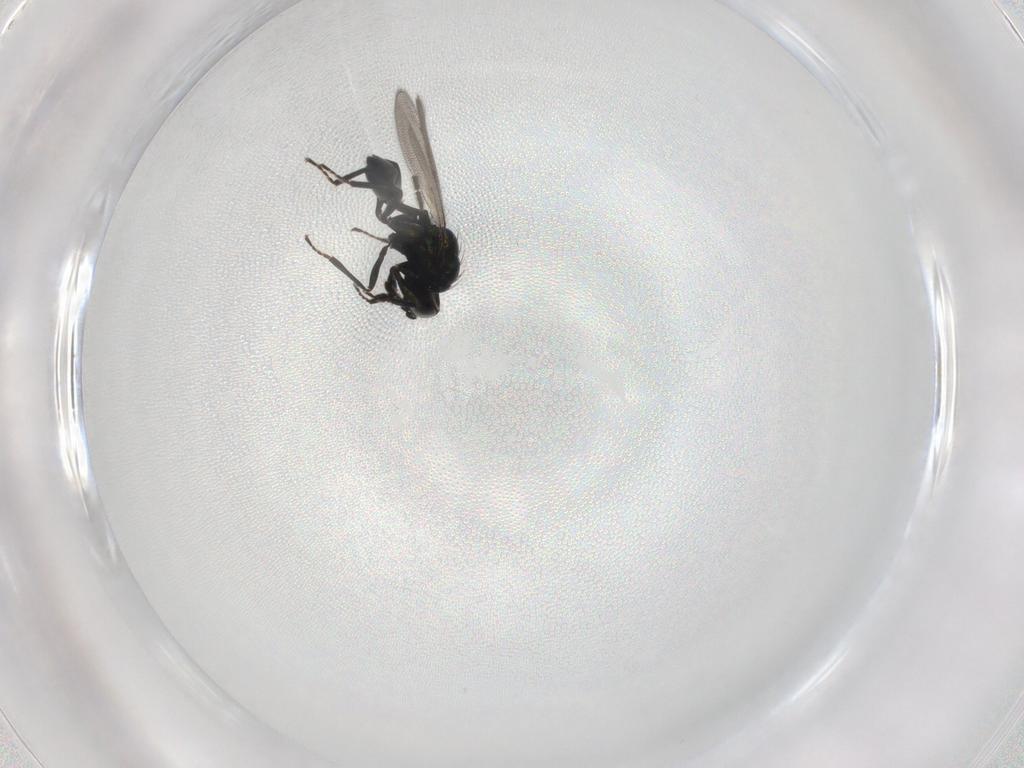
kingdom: Animalia
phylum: Arthropoda
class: Insecta
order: Hymenoptera
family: Eulophidae
